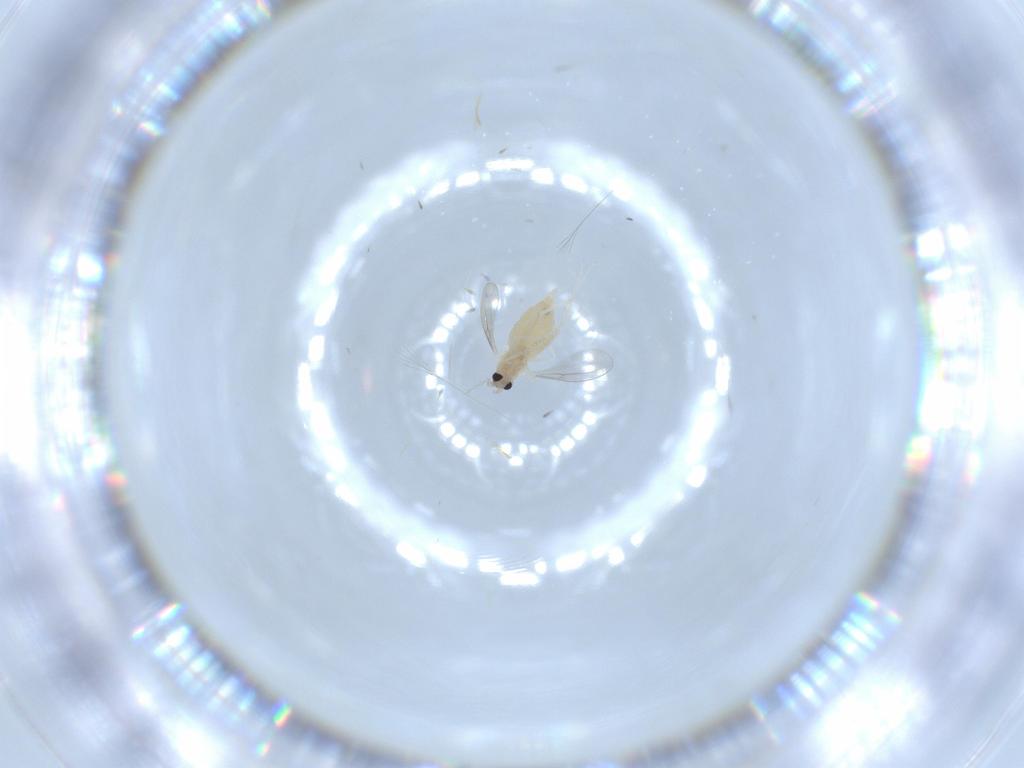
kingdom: Animalia
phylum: Arthropoda
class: Insecta
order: Diptera
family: Cecidomyiidae
